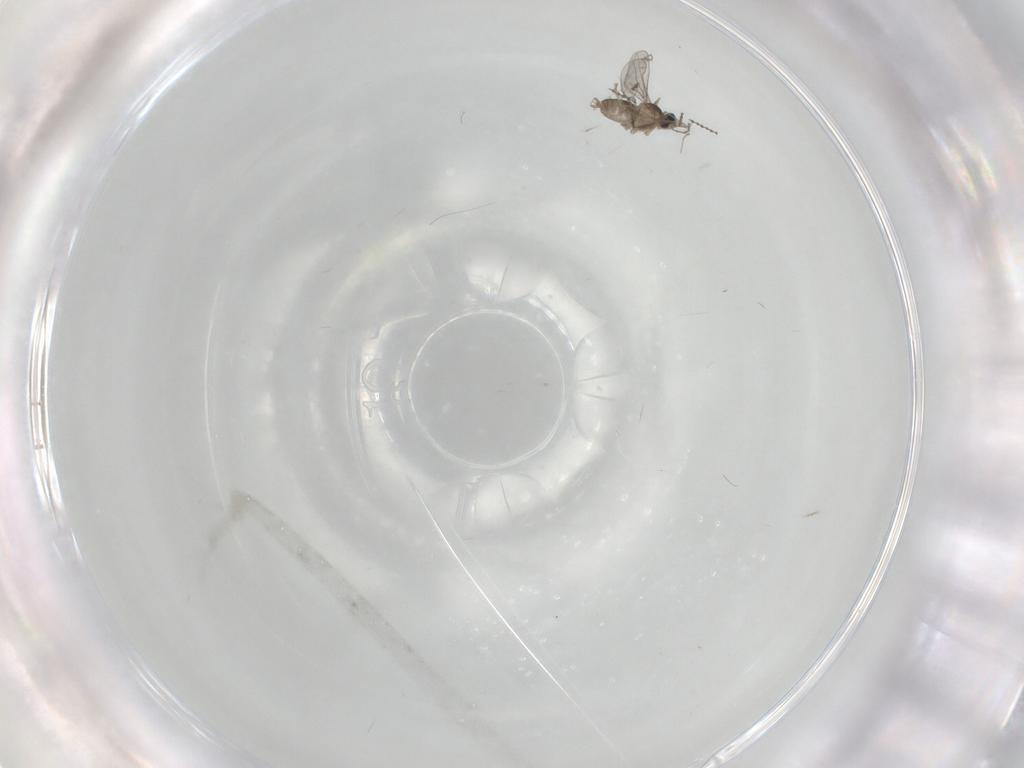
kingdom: Animalia
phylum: Arthropoda
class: Insecta
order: Diptera
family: Cecidomyiidae
